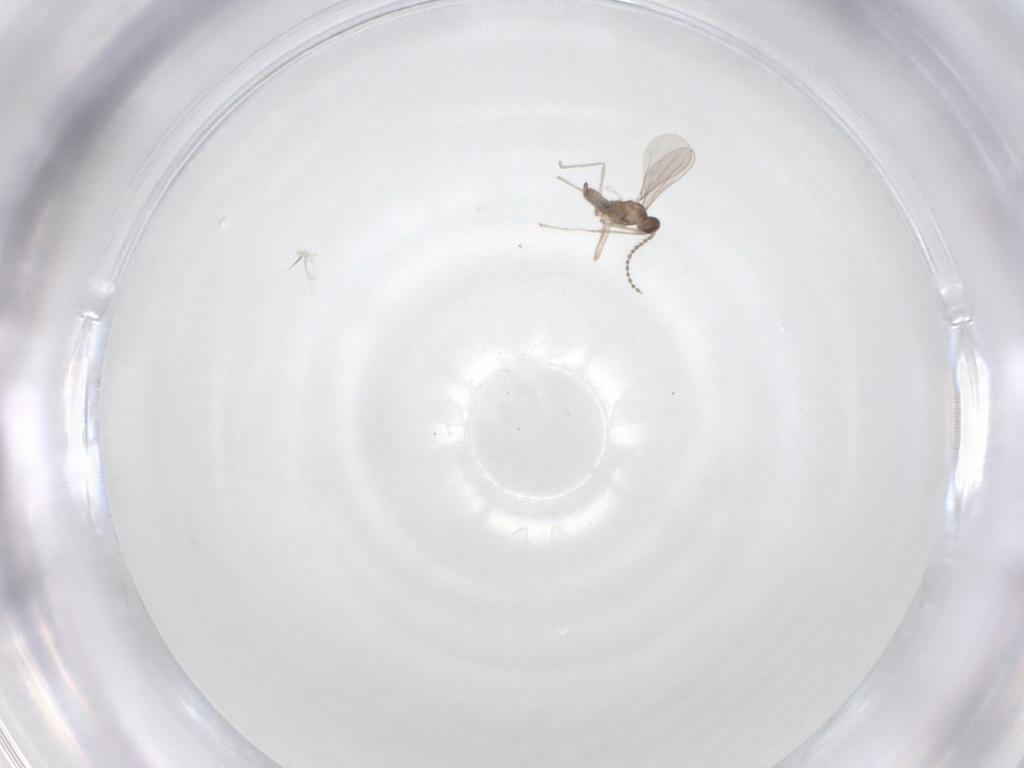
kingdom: Animalia
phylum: Arthropoda
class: Insecta
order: Diptera
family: Cecidomyiidae
